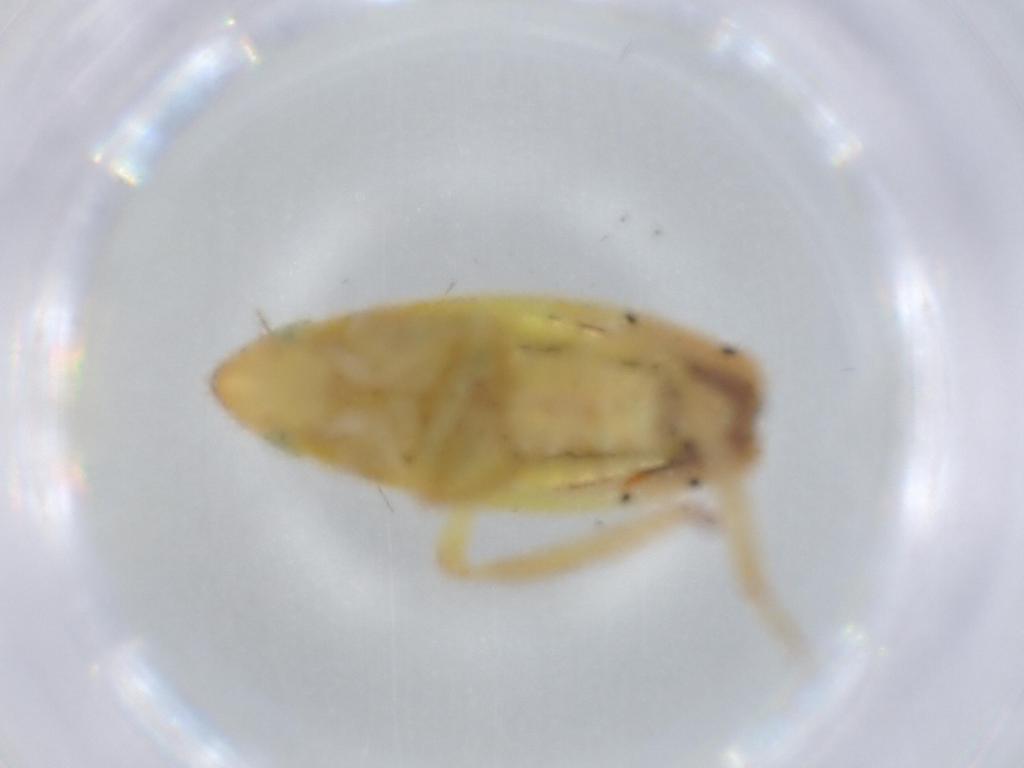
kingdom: Animalia
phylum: Arthropoda
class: Insecta
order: Hemiptera
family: Cicadellidae
